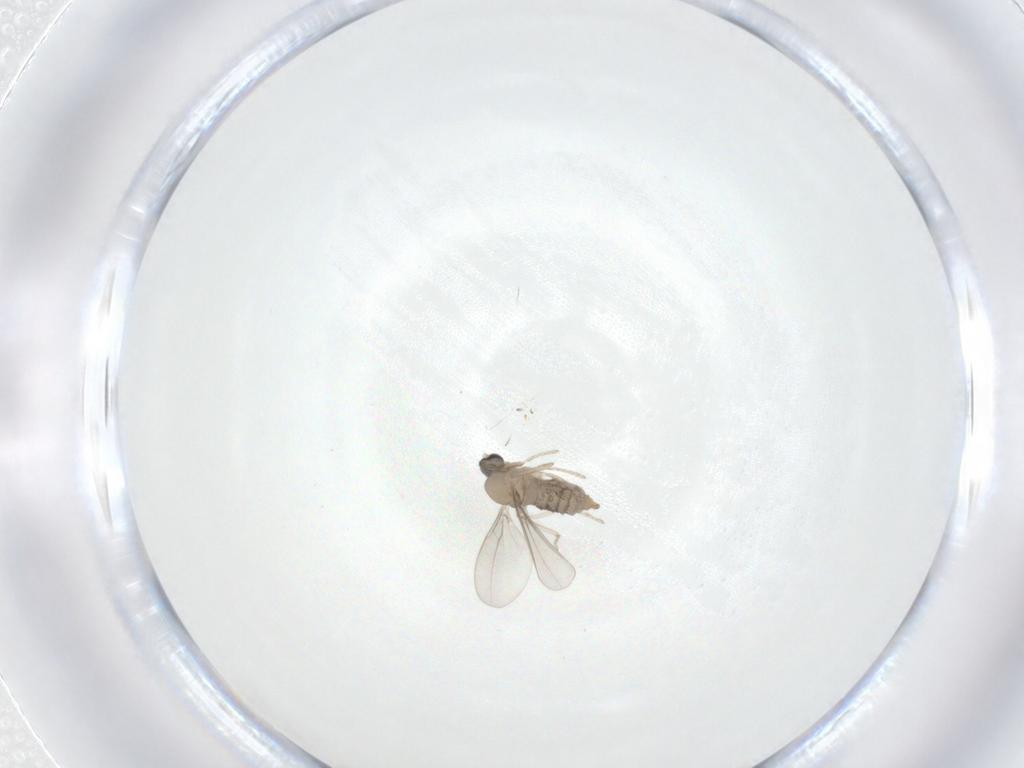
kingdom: Animalia
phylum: Arthropoda
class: Insecta
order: Diptera
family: Cecidomyiidae
